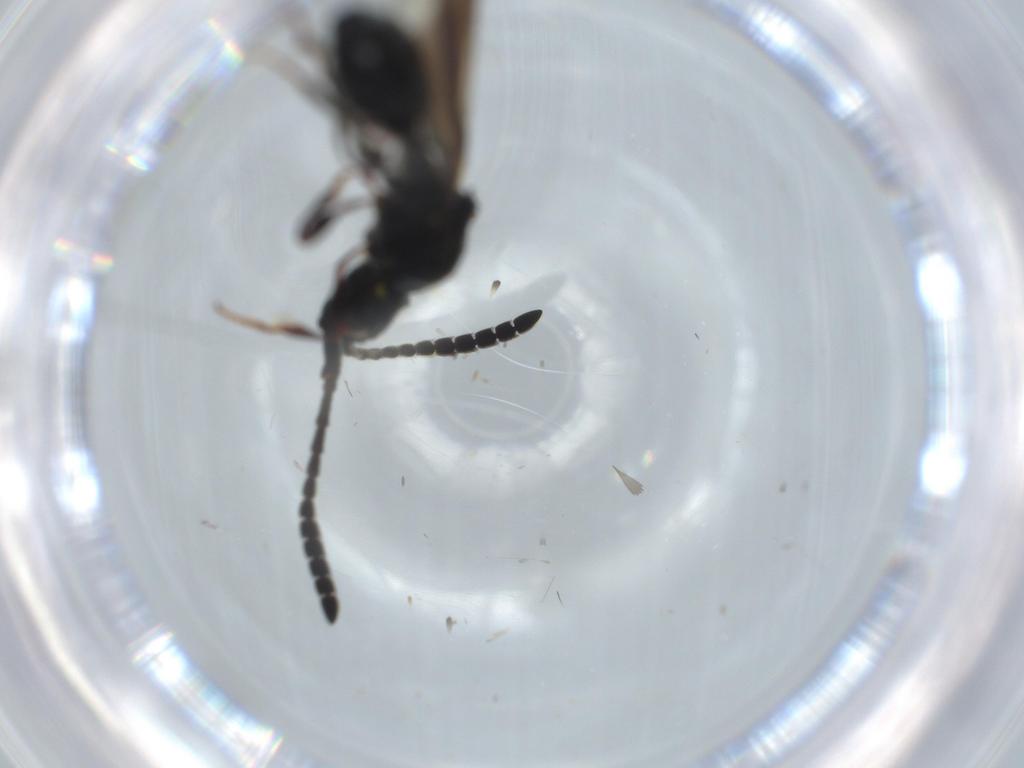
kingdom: Animalia
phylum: Arthropoda
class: Insecta
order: Hymenoptera
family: Diapriidae
